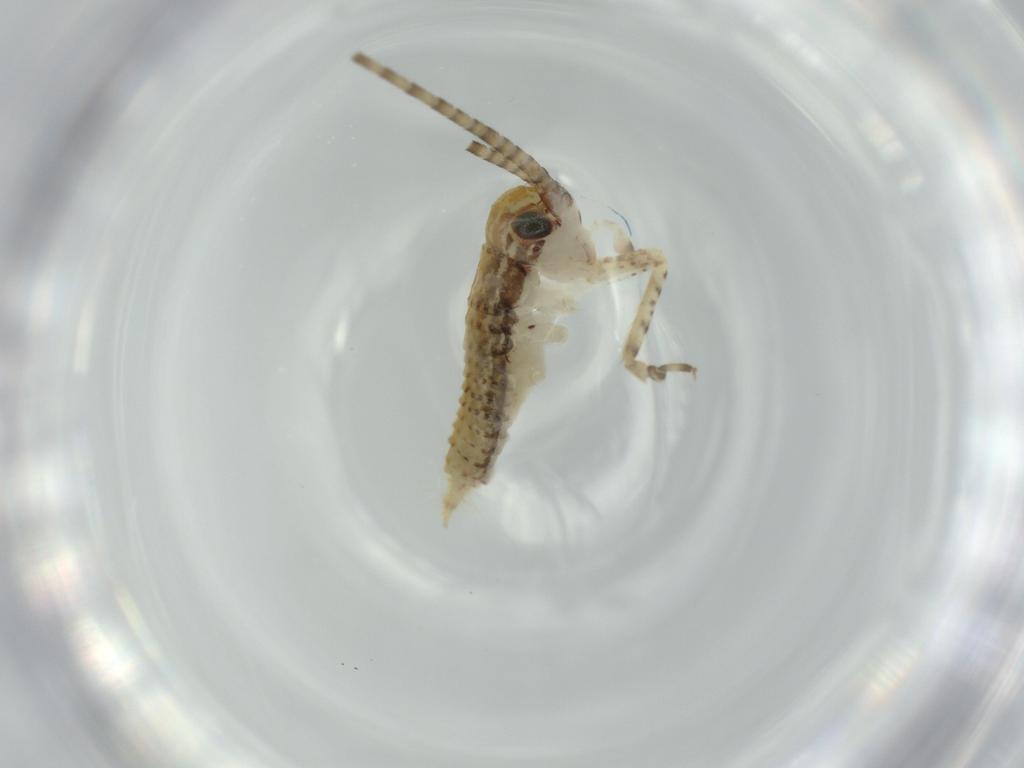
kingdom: Animalia
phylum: Arthropoda
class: Insecta
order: Orthoptera
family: Gryllidae
